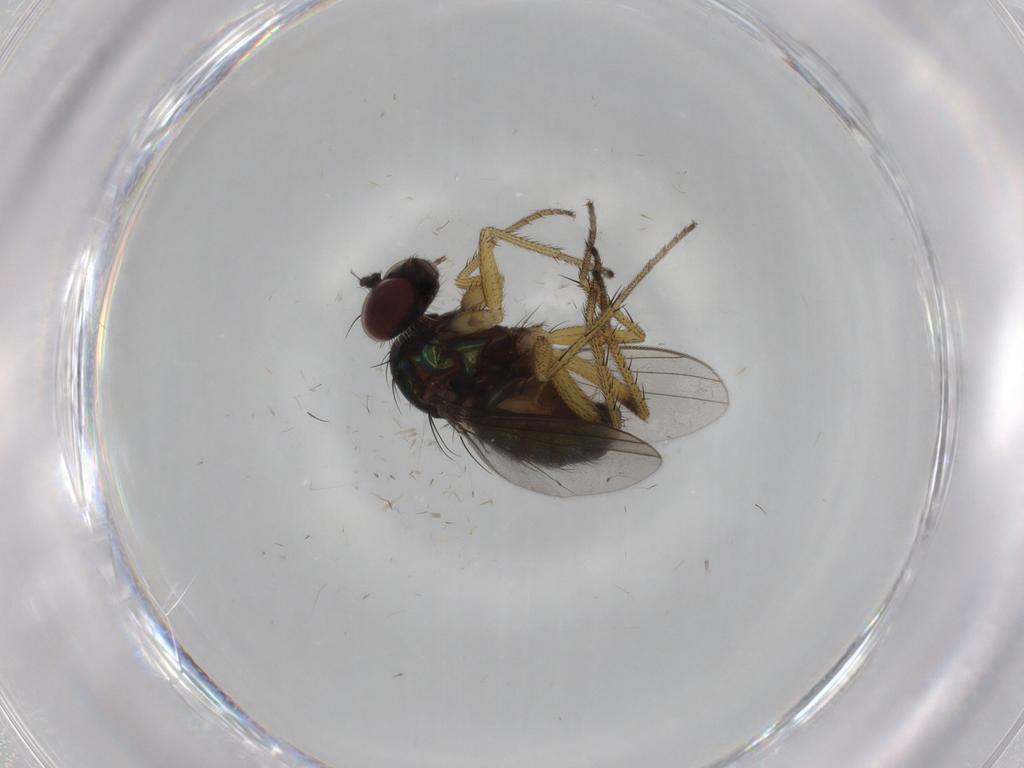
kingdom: Animalia
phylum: Arthropoda
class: Insecta
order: Diptera
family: Dolichopodidae
